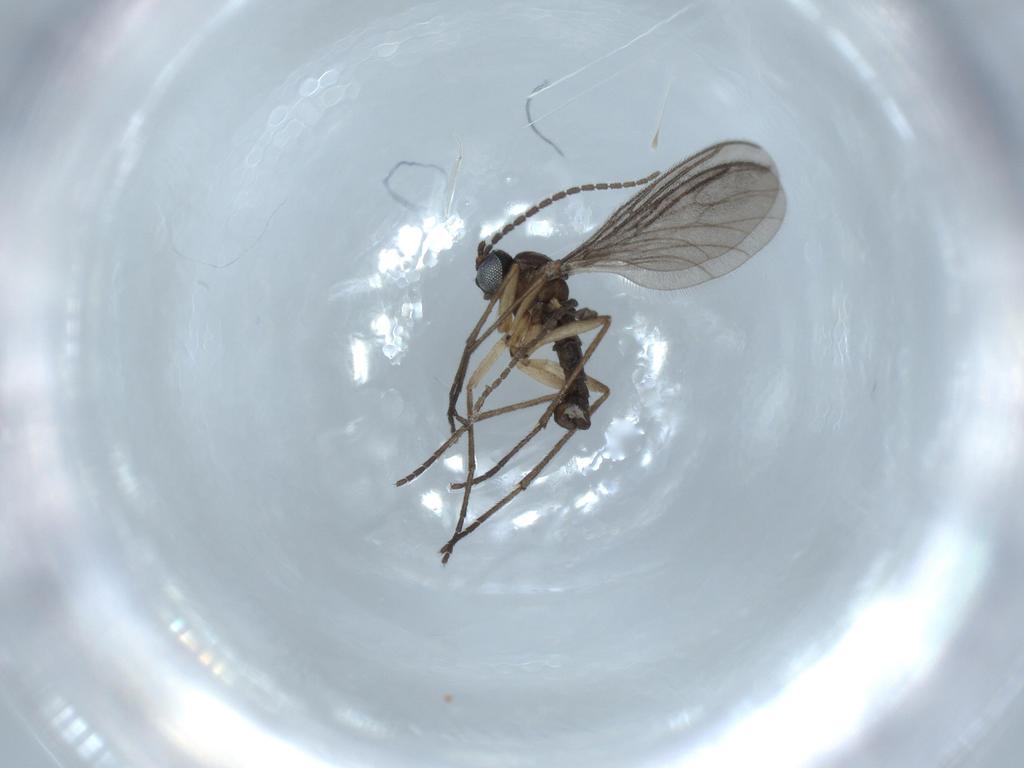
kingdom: Animalia
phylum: Arthropoda
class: Insecta
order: Diptera
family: Sciaridae
